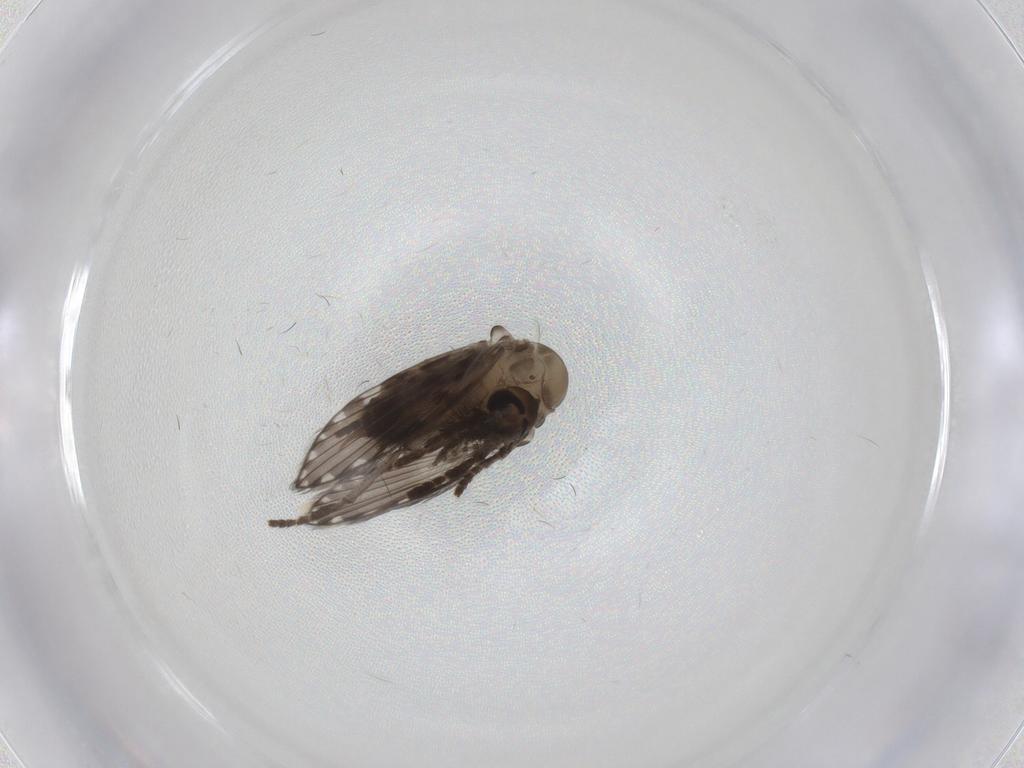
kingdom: Animalia
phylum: Arthropoda
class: Insecta
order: Diptera
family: Psychodidae
